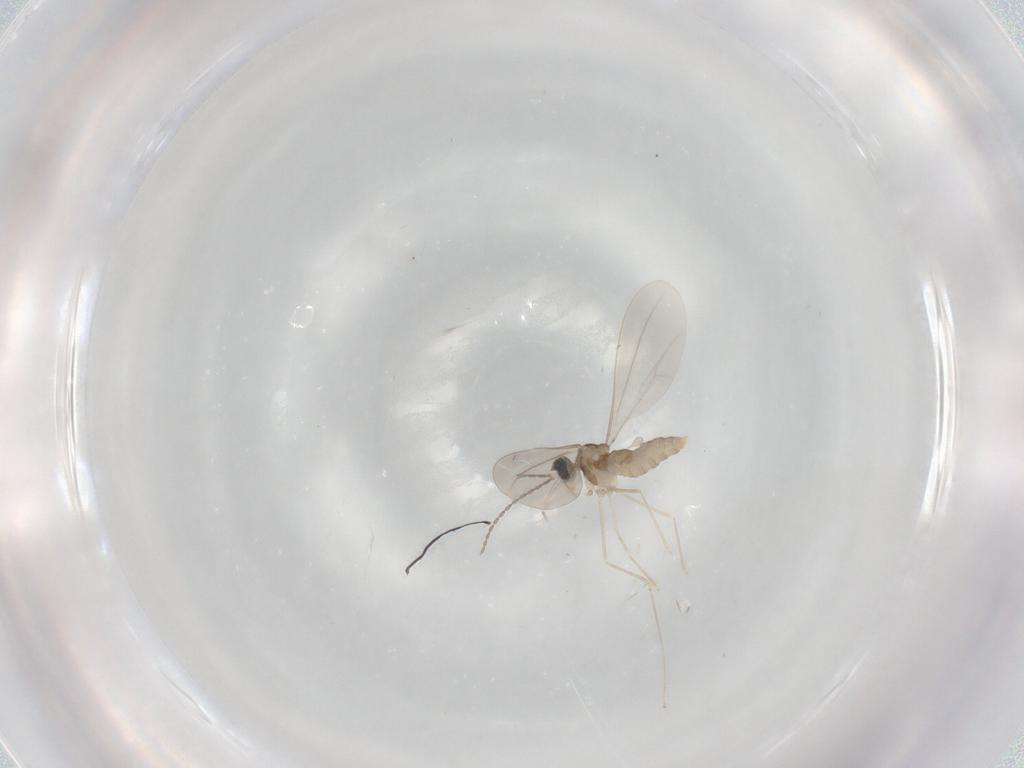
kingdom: Animalia
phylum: Arthropoda
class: Insecta
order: Diptera
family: Cecidomyiidae
